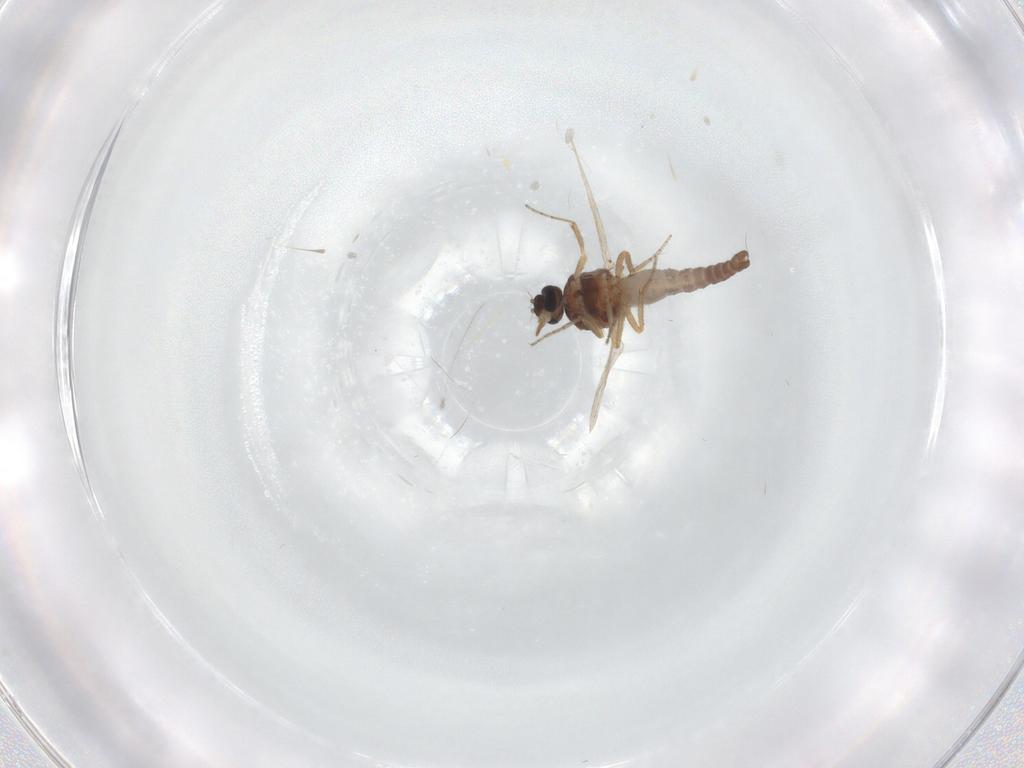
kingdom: Animalia
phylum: Arthropoda
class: Insecta
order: Diptera
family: Ceratopogonidae
